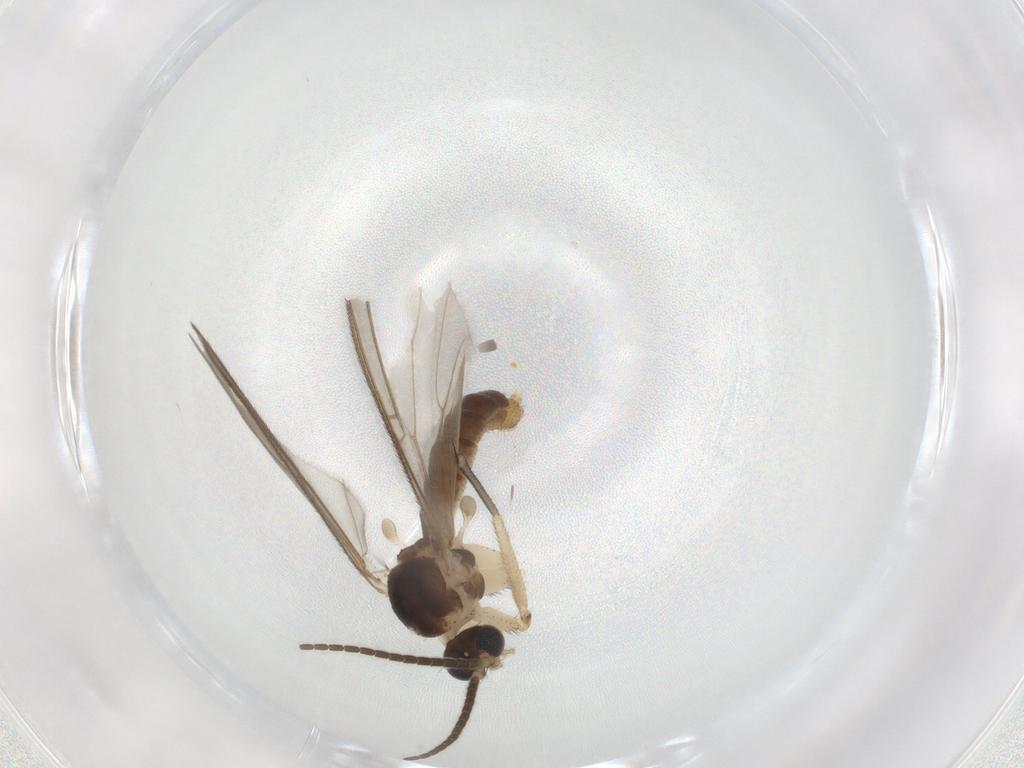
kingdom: Animalia
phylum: Arthropoda
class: Insecta
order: Diptera
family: Mycetophilidae
